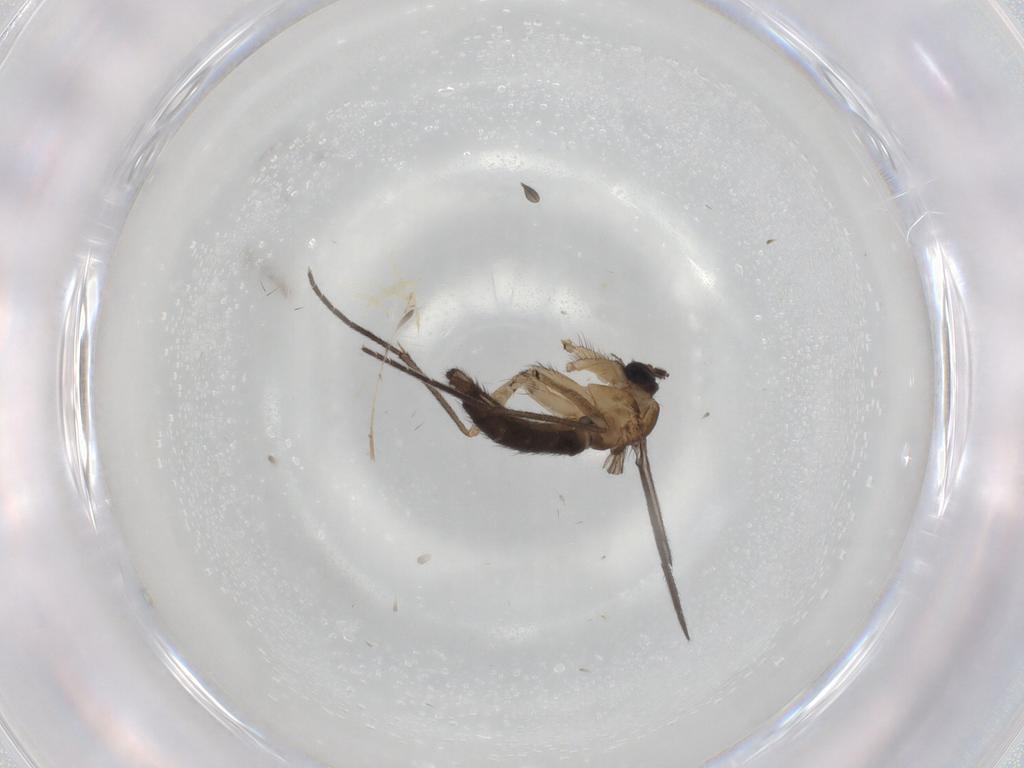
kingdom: Animalia
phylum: Arthropoda
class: Insecta
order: Diptera
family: Sciaridae
